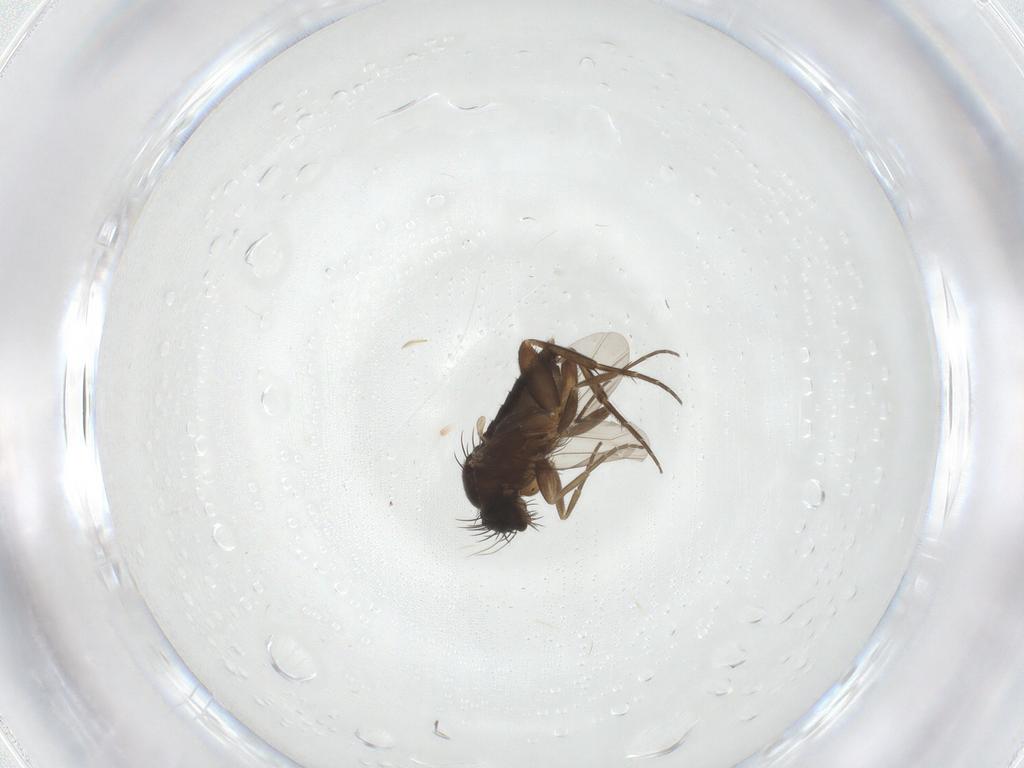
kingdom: Animalia
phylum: Arthropoda
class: Insecta
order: Diptera
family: Phoridae
